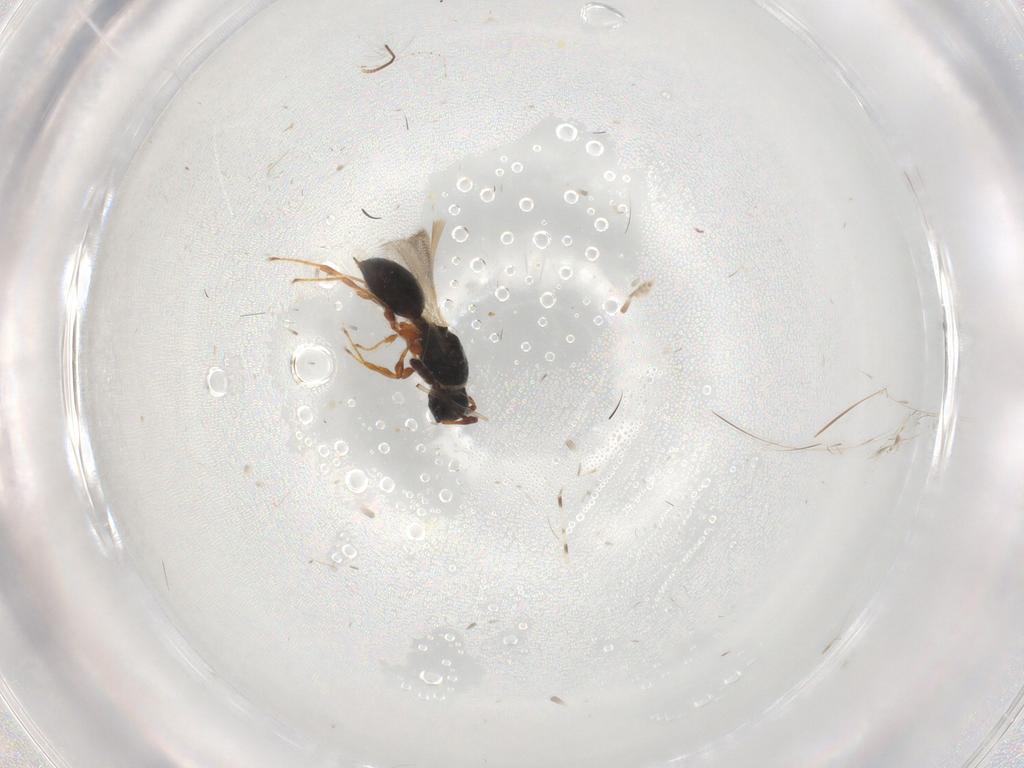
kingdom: Animalia
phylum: Arthropoda
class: Insecta
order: Hymenoptera
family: Diapriidae
